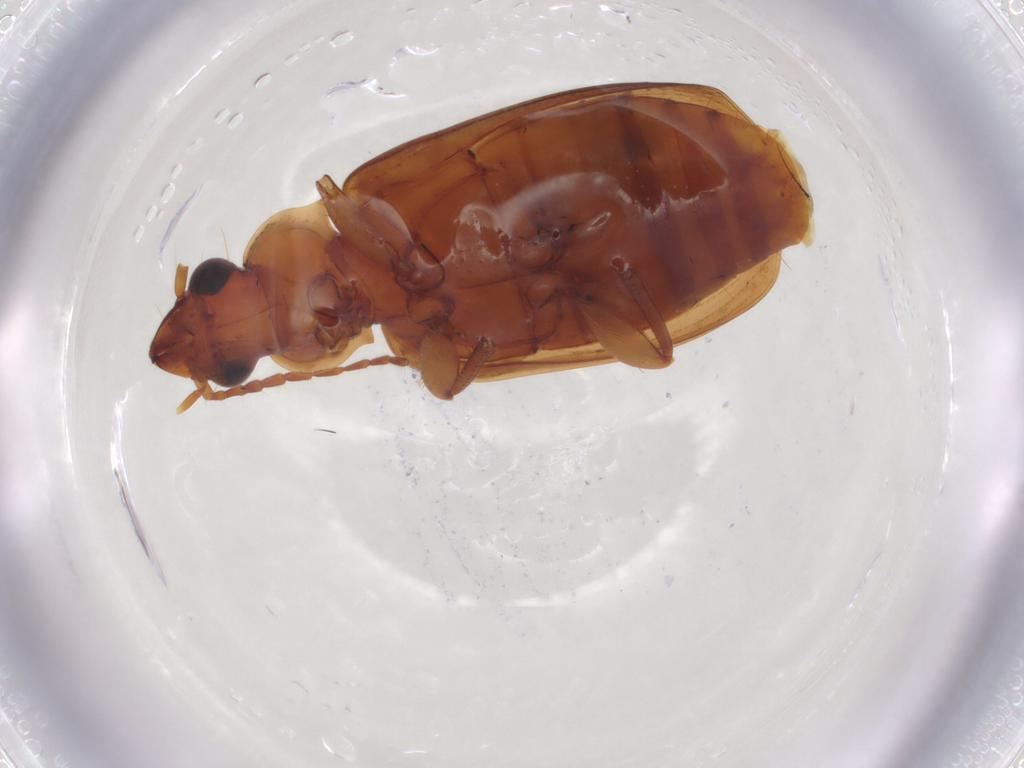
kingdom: Animalia
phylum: Arthropoda
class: Insecta
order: Coleoptera
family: Carabidae
